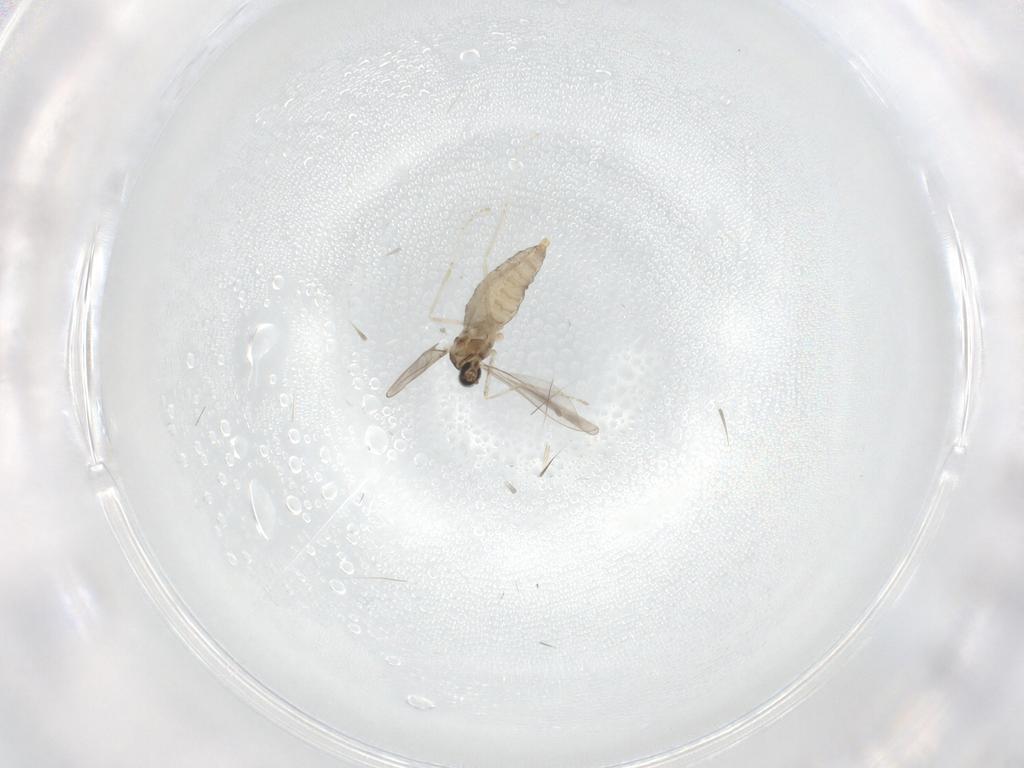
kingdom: Animalia
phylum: Arthropoda
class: Insecta
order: Diptera
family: Cecidomyiidae
